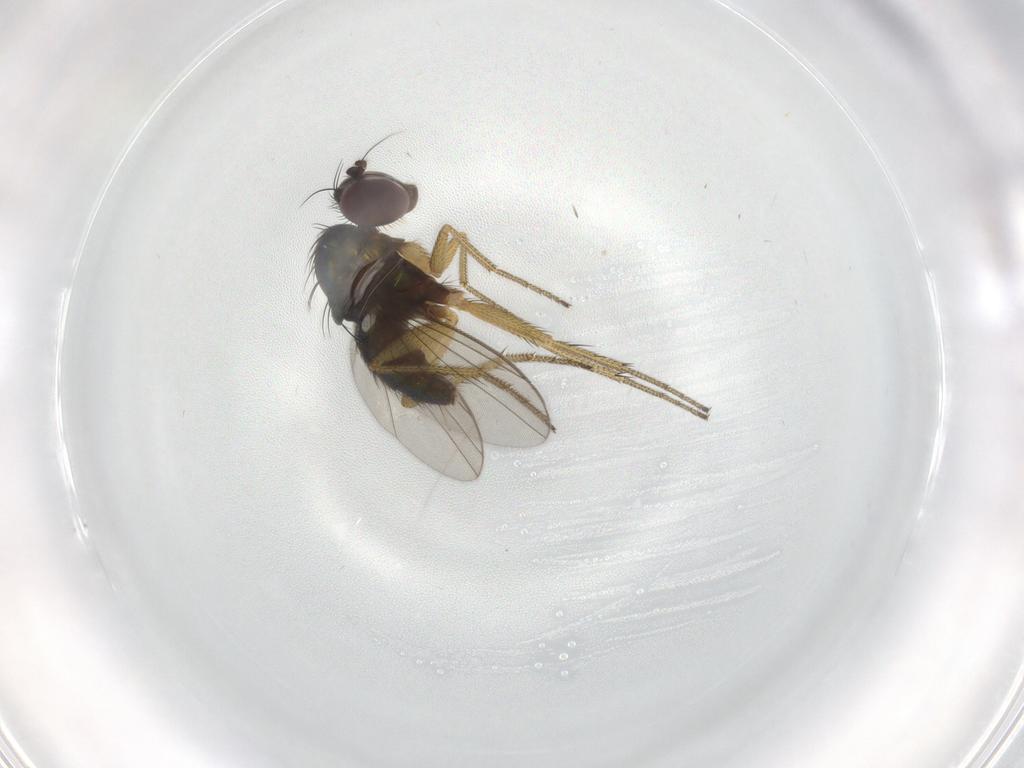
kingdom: Animalia
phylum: Arthropoda
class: Insecta
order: Diptera
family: Dolichopodidae
